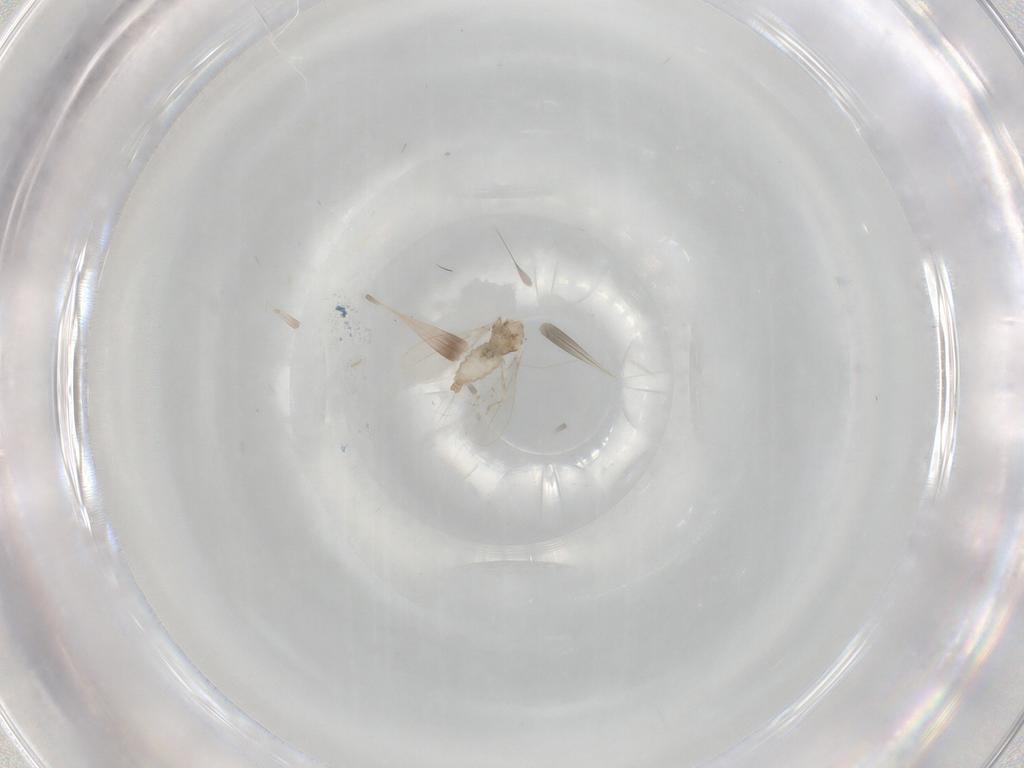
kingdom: Animalia
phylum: Arthropoda
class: Insecta
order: Diptera
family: Cecidomyiidae
